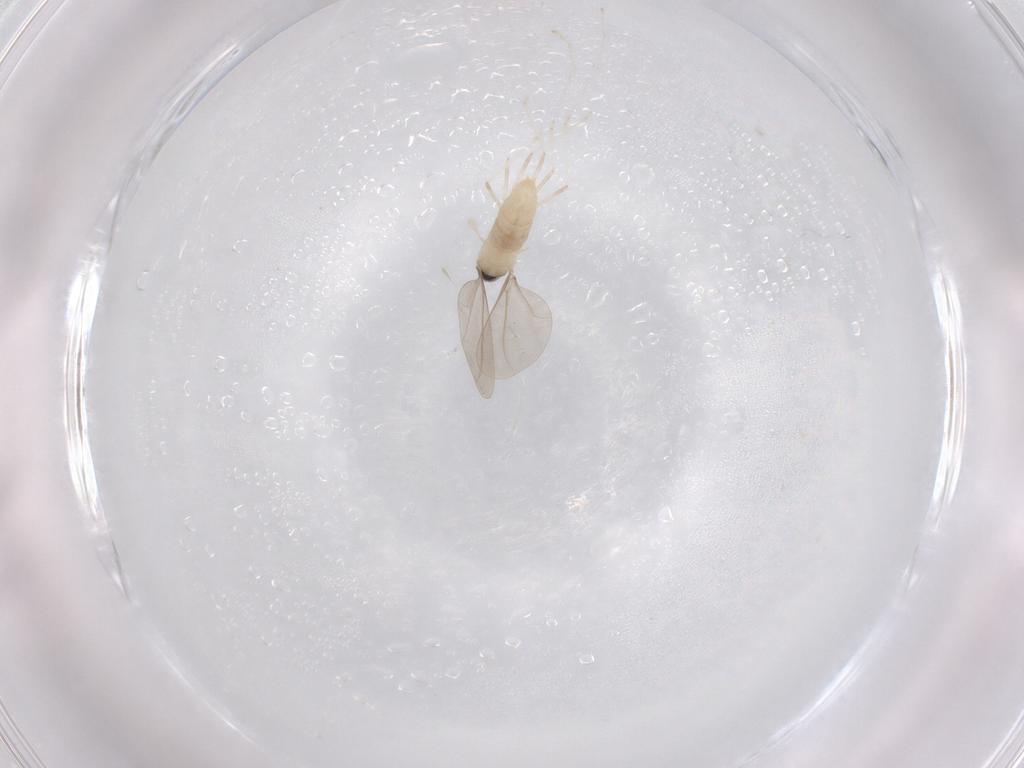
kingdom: Animalia
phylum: Arthropoda
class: Insecta
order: Diptera
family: Cecidomyiidae
